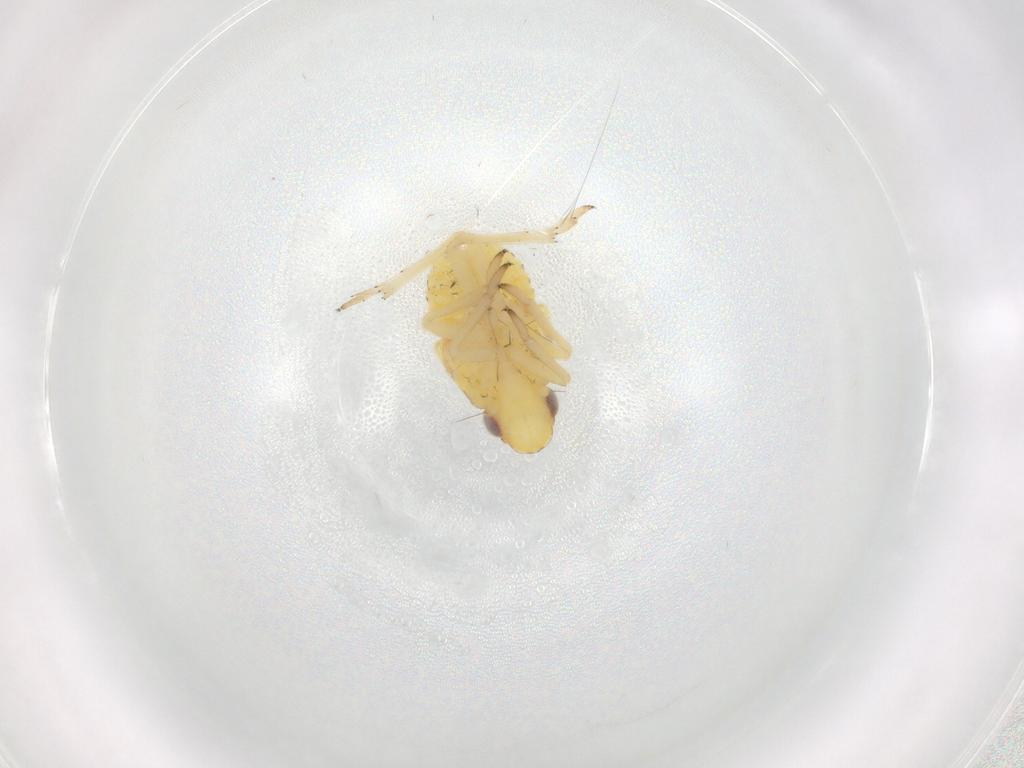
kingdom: Animalia
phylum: Arthropoda
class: Insecta
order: Hemiptera
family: Caliscelidae
